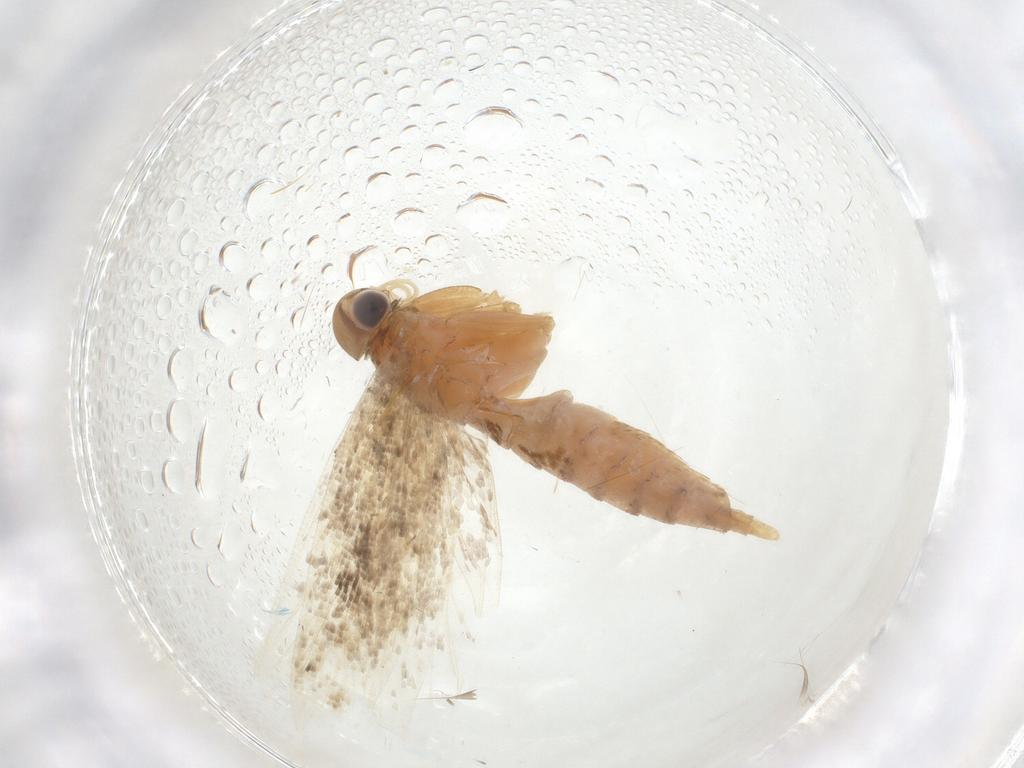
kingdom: Animalia
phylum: Arthropoda
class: Insecta
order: Lepidoptera
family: Gelechiidae
